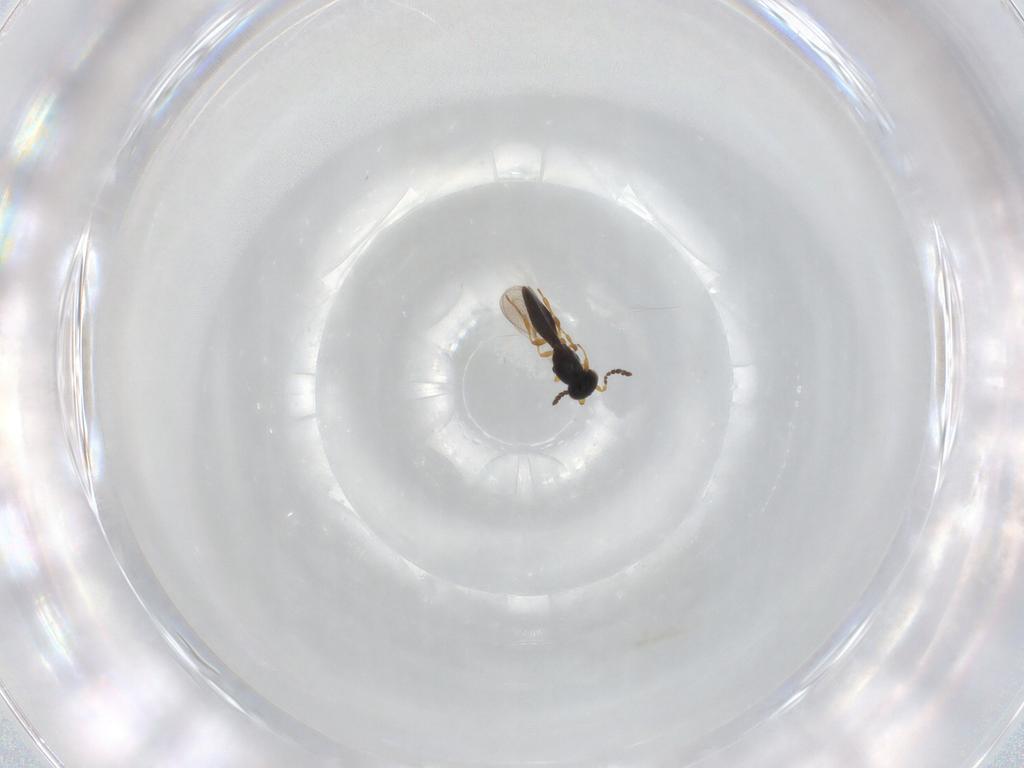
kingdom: Animalia
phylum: Arthropoda
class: Insecta
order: Hymenoptera
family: Platygastridae
